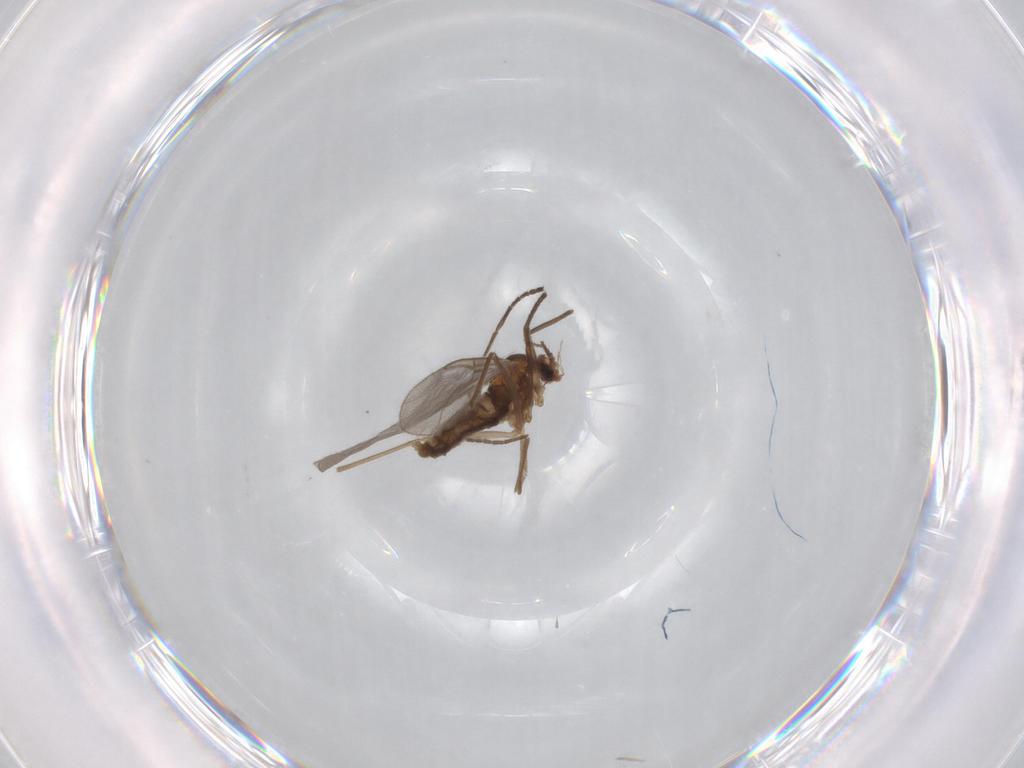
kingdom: Animalia
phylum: Arthropoda
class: Insecta
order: Diptera
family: Cecidomyiidae
